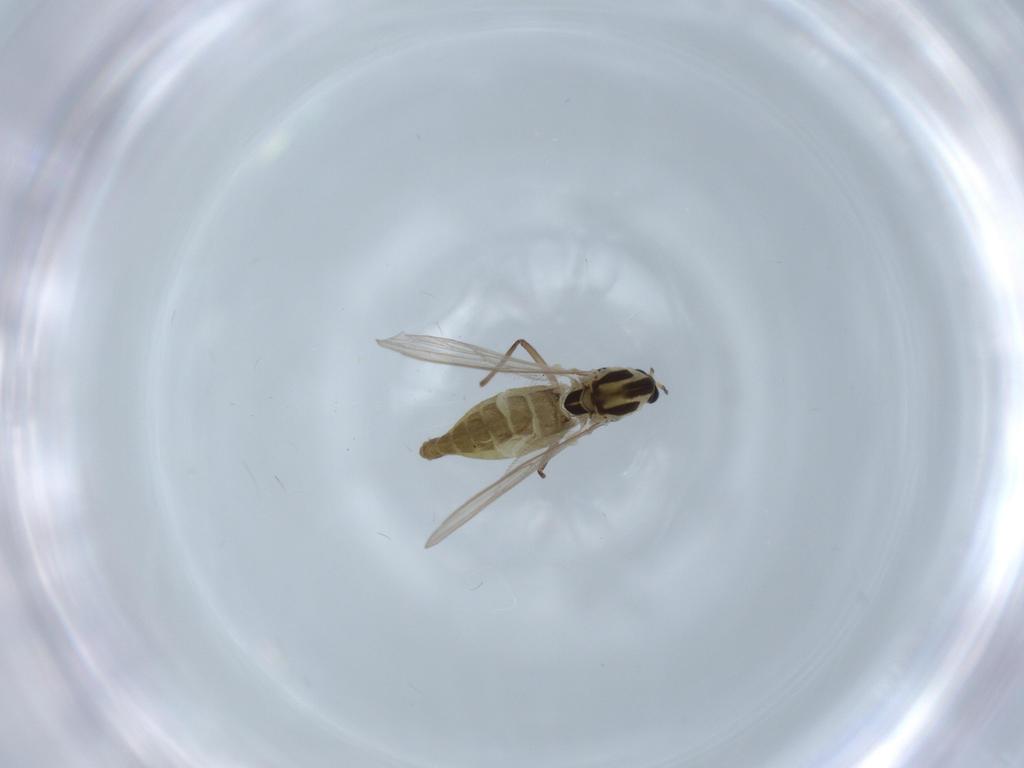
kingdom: Animalia
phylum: Arthropoda
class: Insecta
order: Diptera
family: Chironomidae
